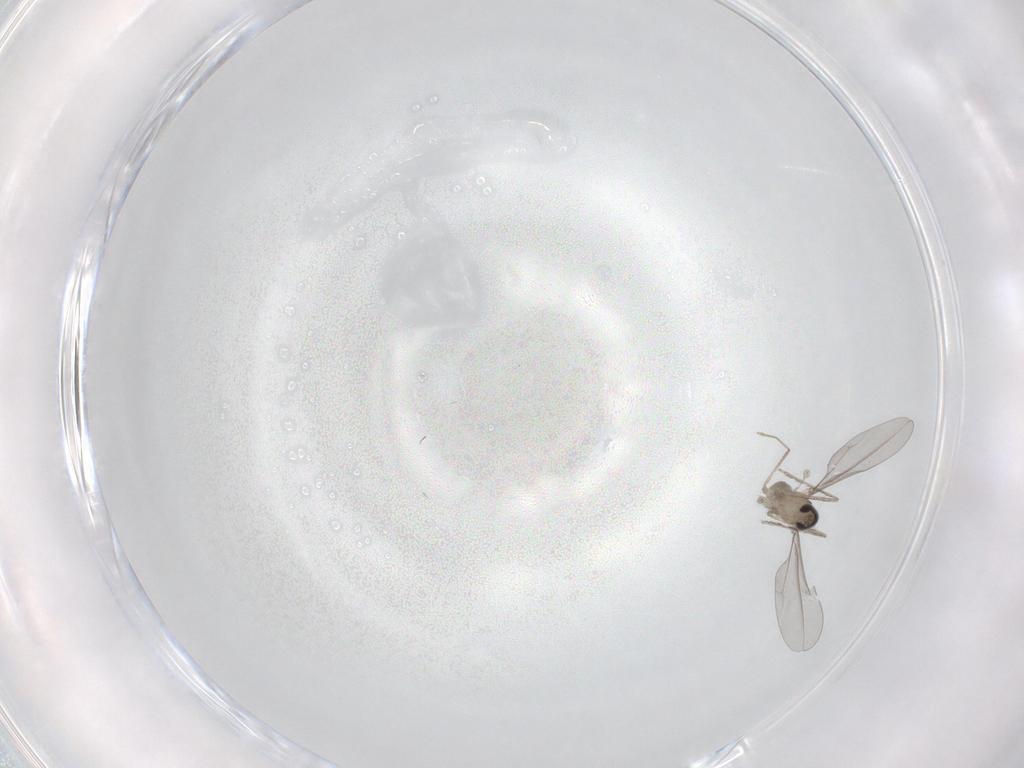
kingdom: Animalia
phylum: Arthropoda
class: Insecta
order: Diptera
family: Cecidomyiidae
